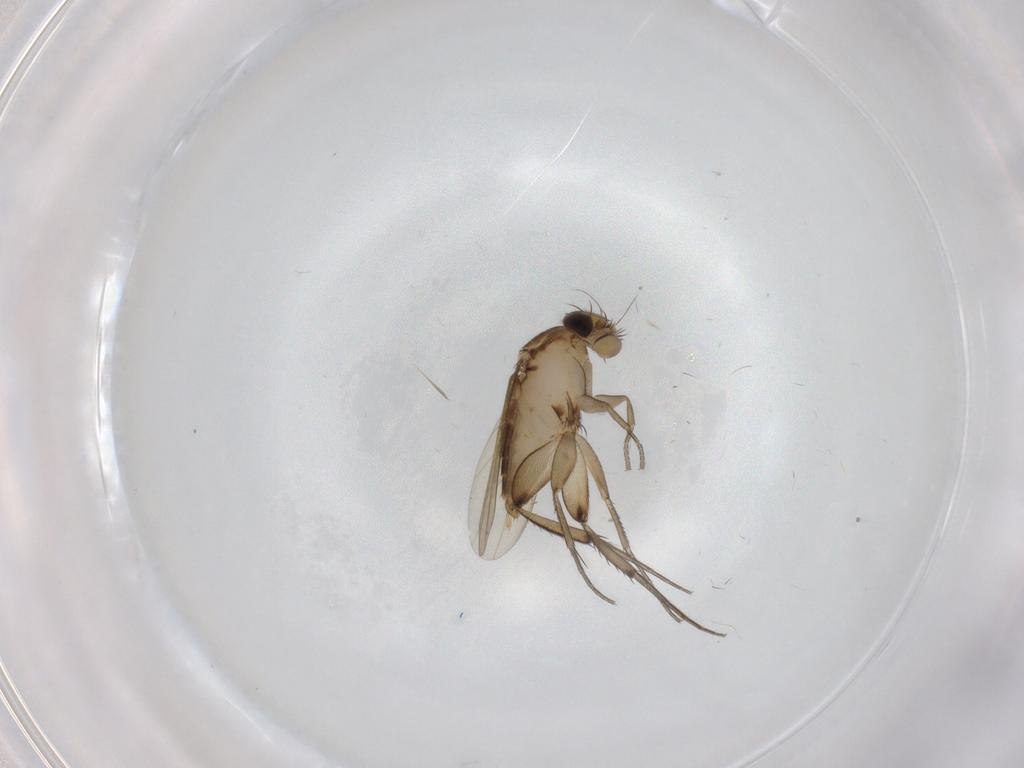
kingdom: Animalia
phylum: Arthropoda
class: Insecta
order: Diptera
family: Phoridae
